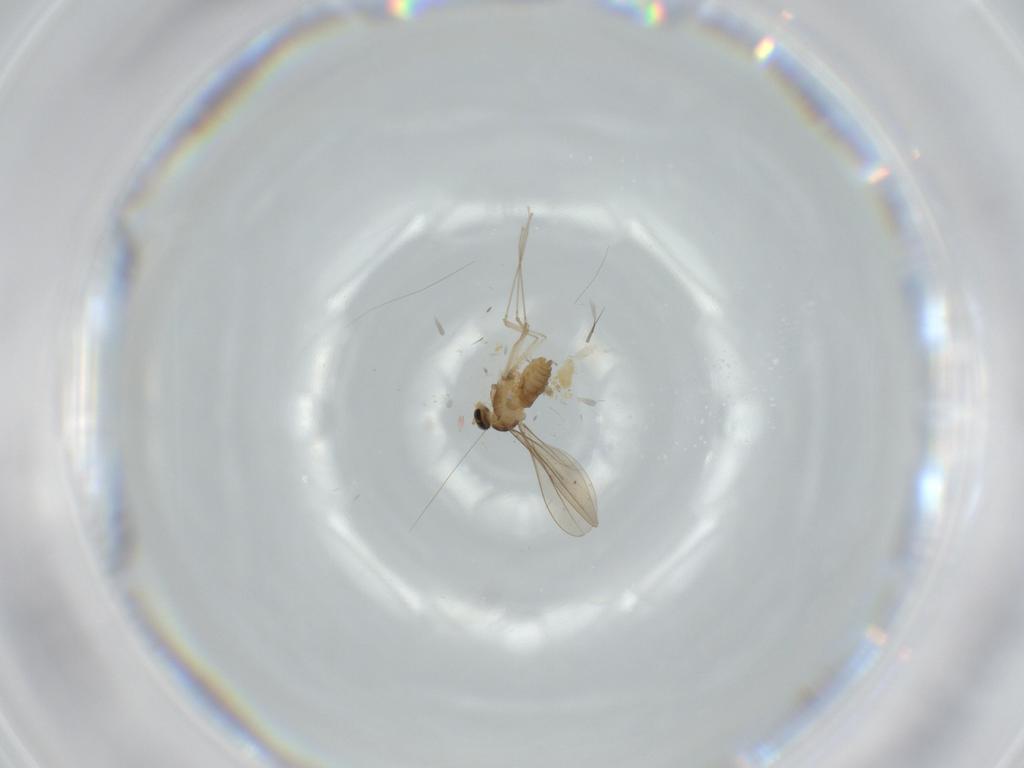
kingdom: Animalia
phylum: Arthropoda
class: Insecta
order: Diptera
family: Cecidomyiidae
